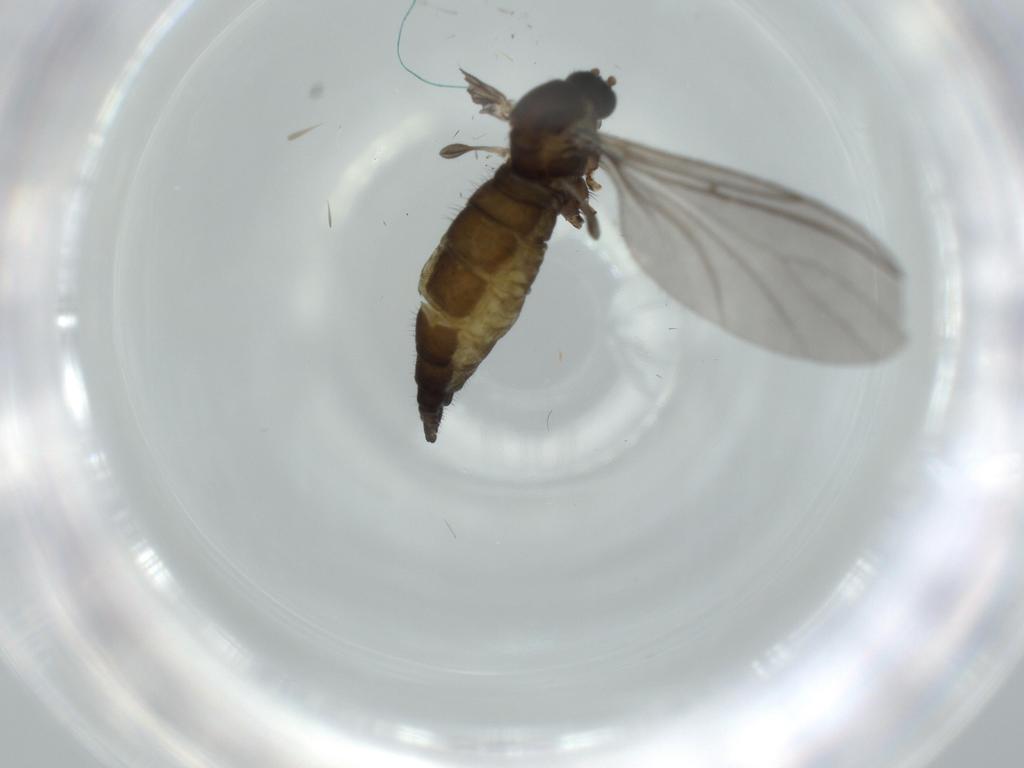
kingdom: Animalia
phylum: Arthropoda
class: Insecta
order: Diptera
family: Sciaridae
